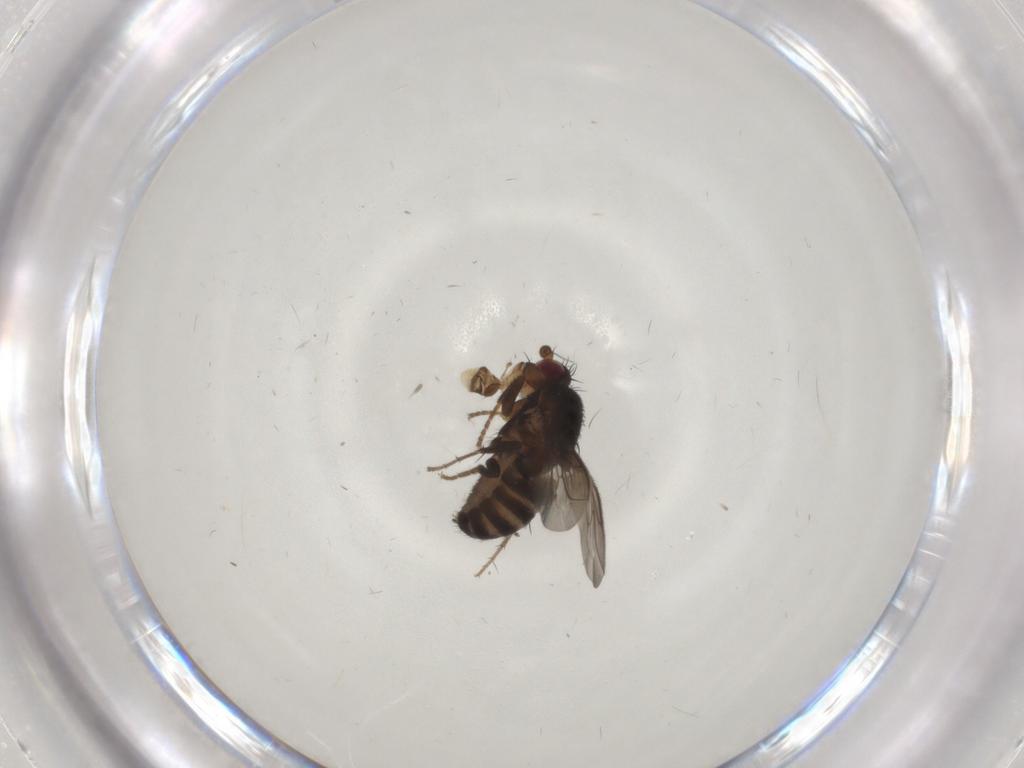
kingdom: Animalia
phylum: Arthropoda
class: Insecta
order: Diptera
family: Sphaeroceridae
